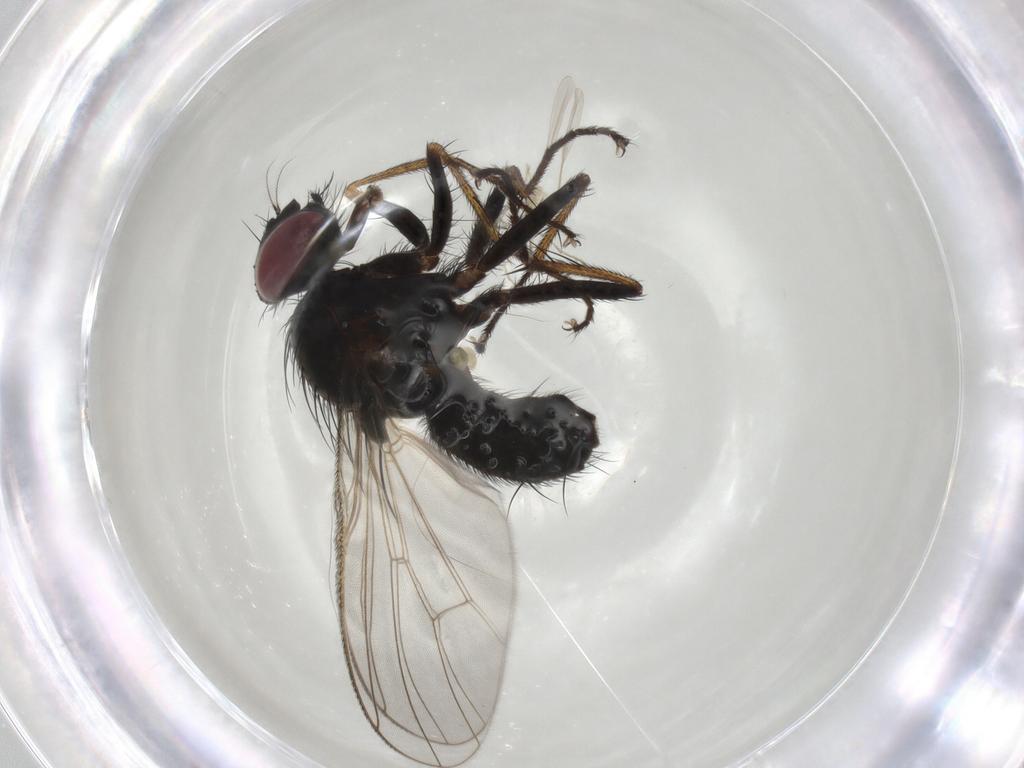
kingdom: Animalia
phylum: Arthropoda
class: Insecta
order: Diptera
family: Muscidae
